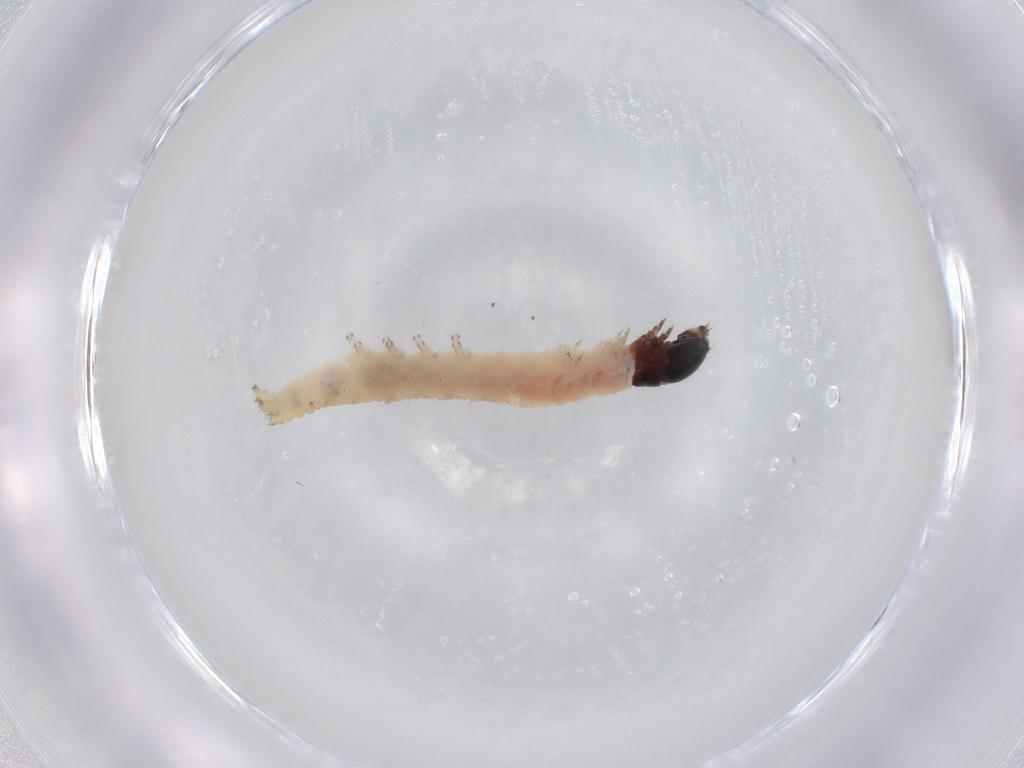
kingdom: Animalia
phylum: Arthropoda
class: Insecta
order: Lepidoptera
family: Gelechiidae
